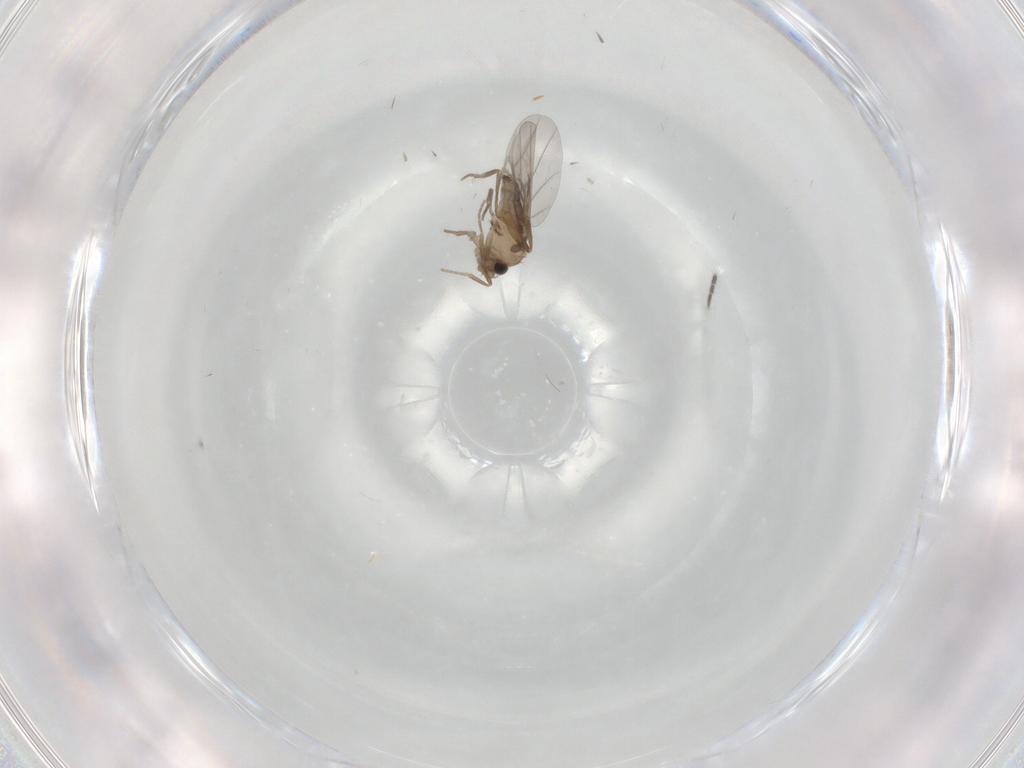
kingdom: Animalia
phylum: Arthropoda
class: Insecta
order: Diptera
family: Sciaridae
